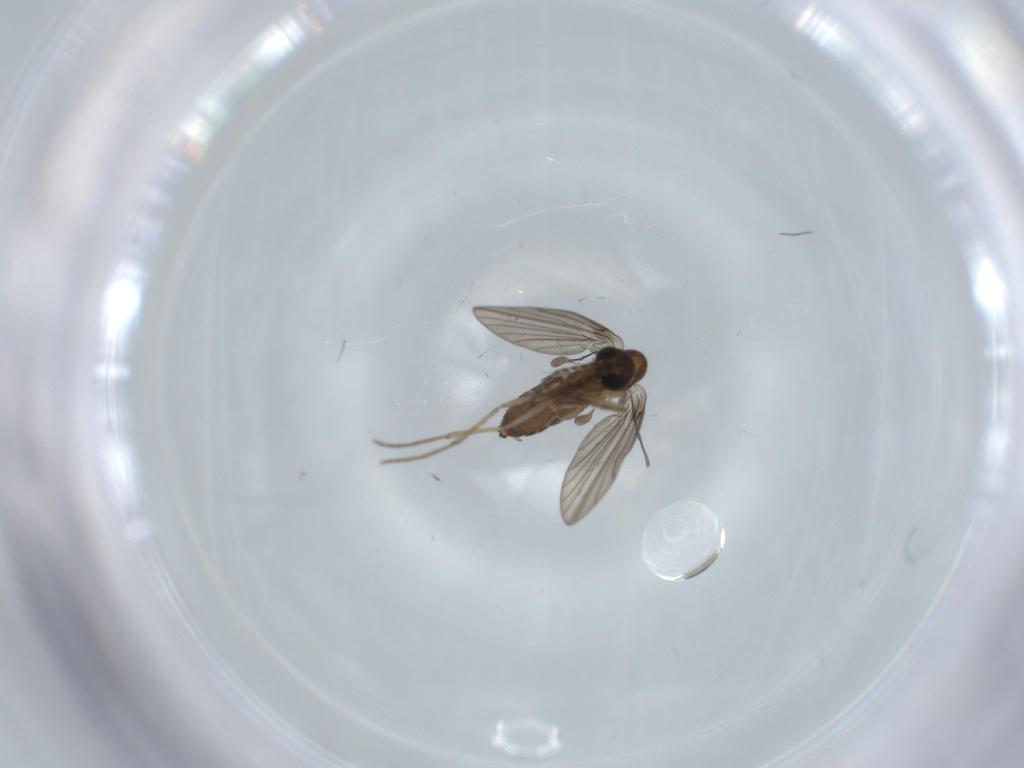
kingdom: Animalia
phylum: Arthropoda
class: Insecta
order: Diptera
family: Psychodidae
